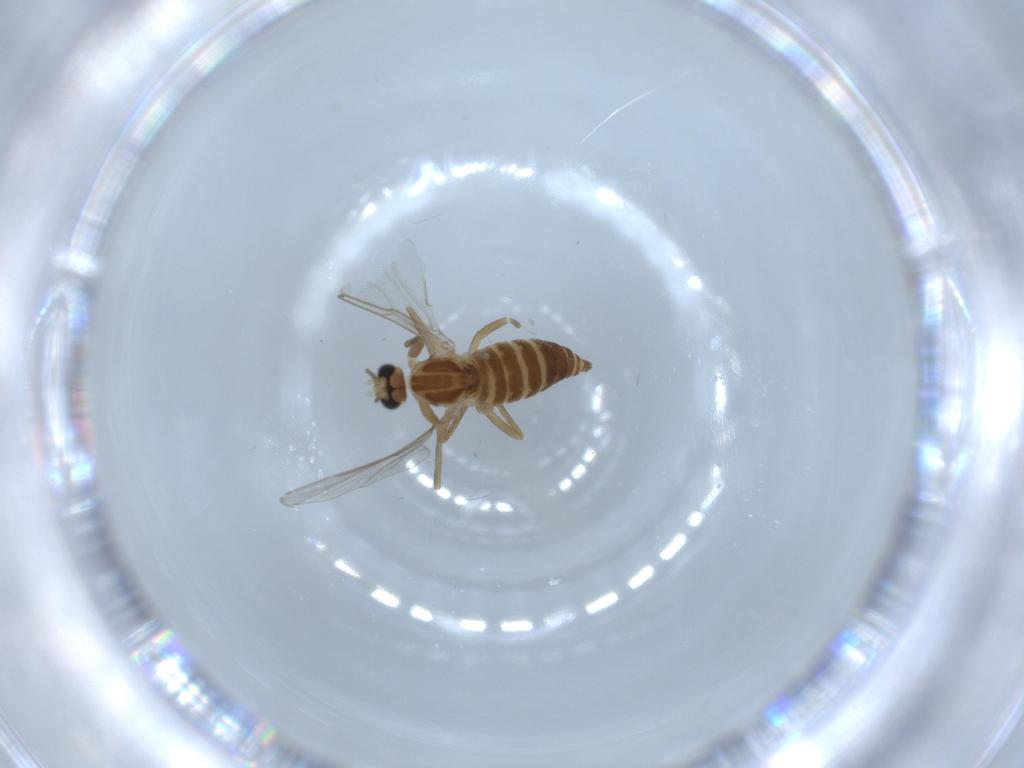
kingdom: Animalia
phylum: Arthropoda
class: Insecta
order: Diptera
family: Cecidomyiidae
